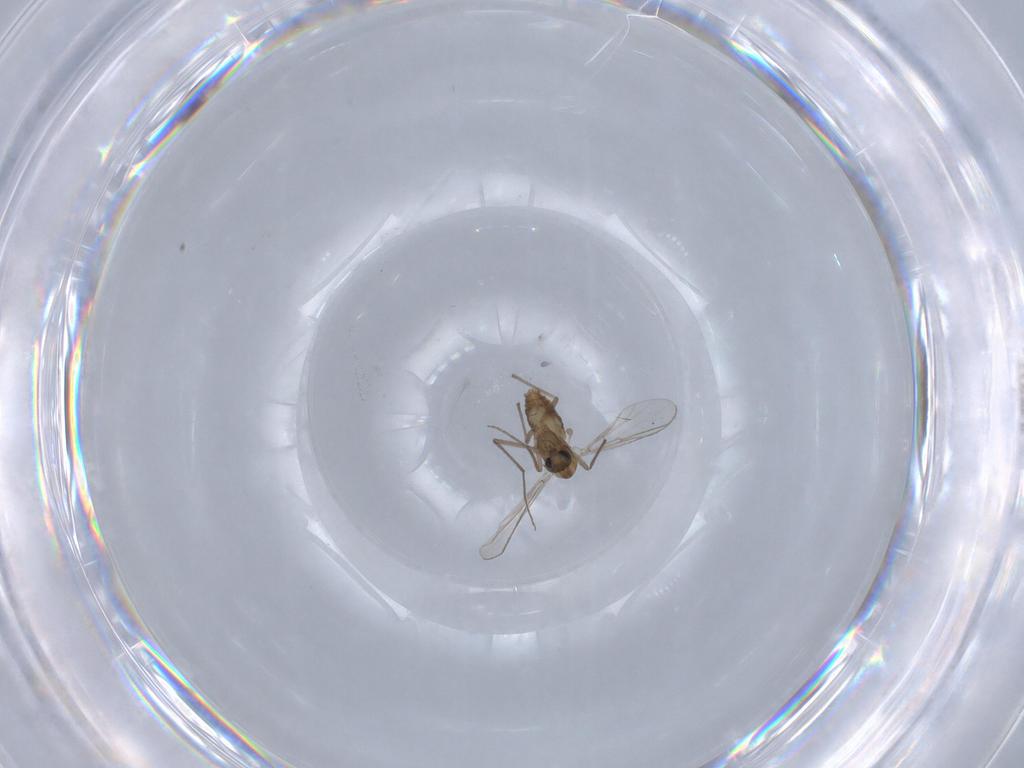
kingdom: Animalia
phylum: Arthropoda
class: Insecta
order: Diptera
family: Chironomidae
